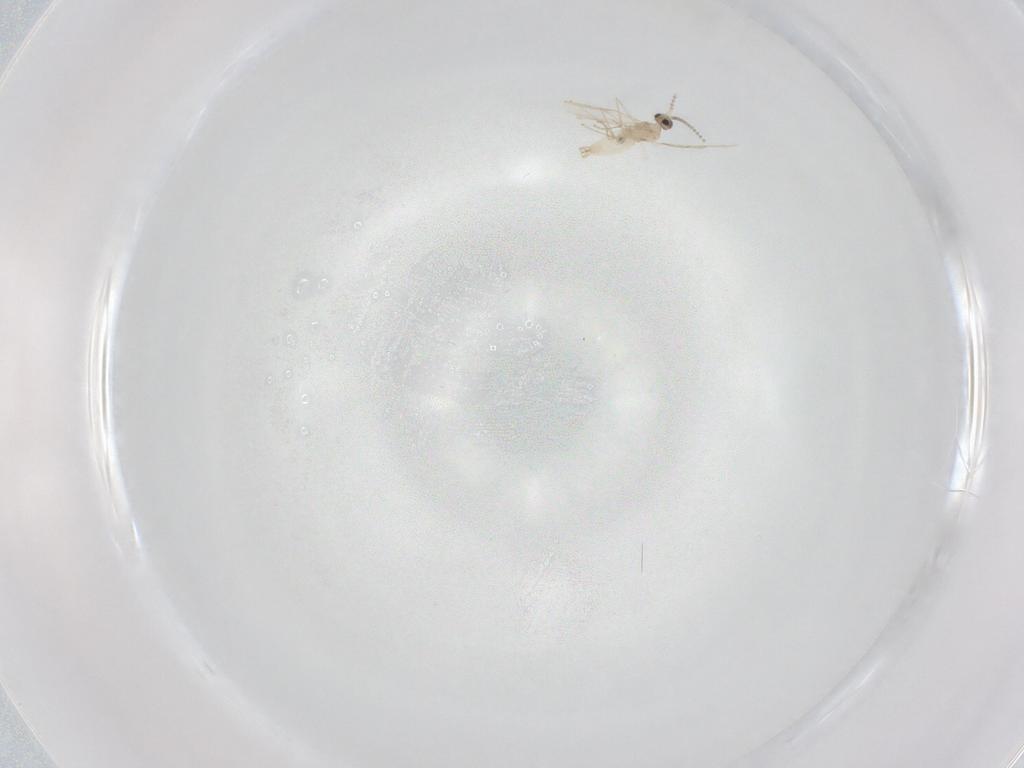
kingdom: Animalia
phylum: Arthropoda
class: Insecta
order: Diptera
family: Cecidomyiidae
